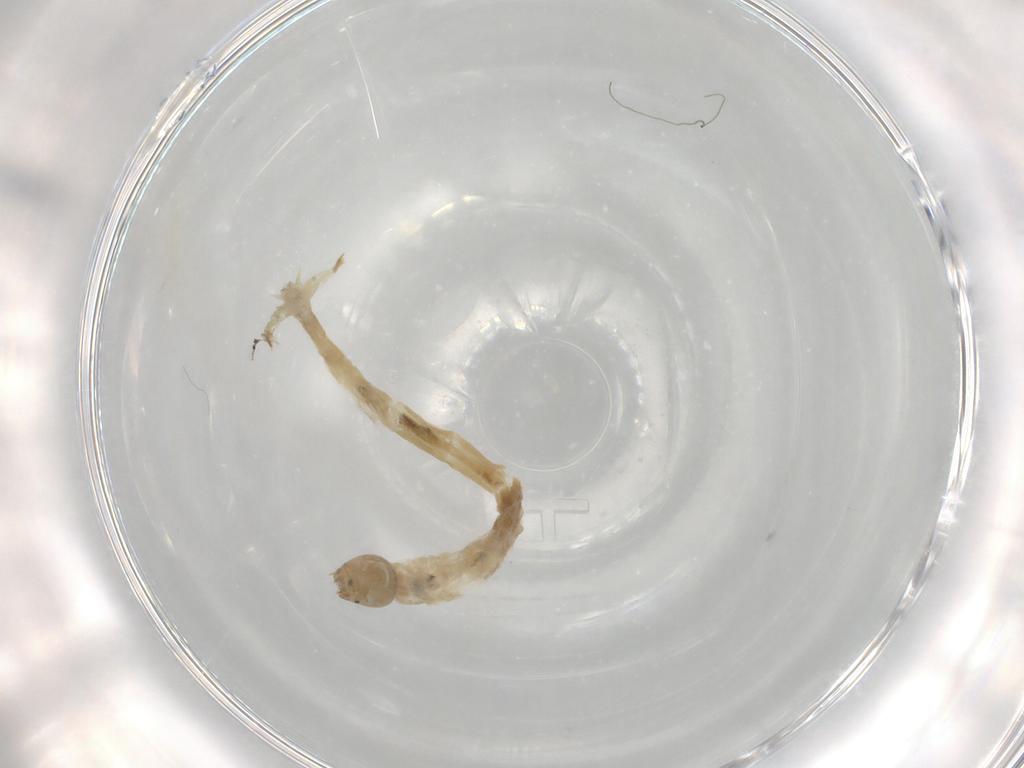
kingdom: Animalia
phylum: Arthropoda
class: Insecta
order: Diptera
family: Chironomidae
